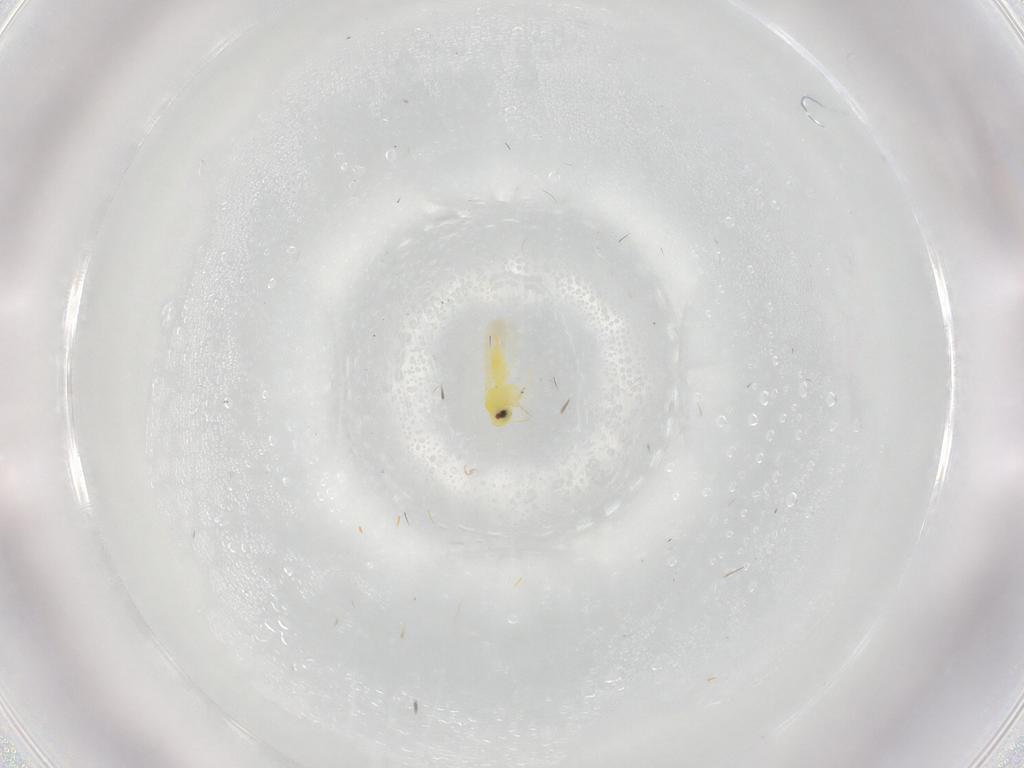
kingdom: Animalia
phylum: Arthropoda
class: Insecta
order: Hemiptera
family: Aleyrodidae
